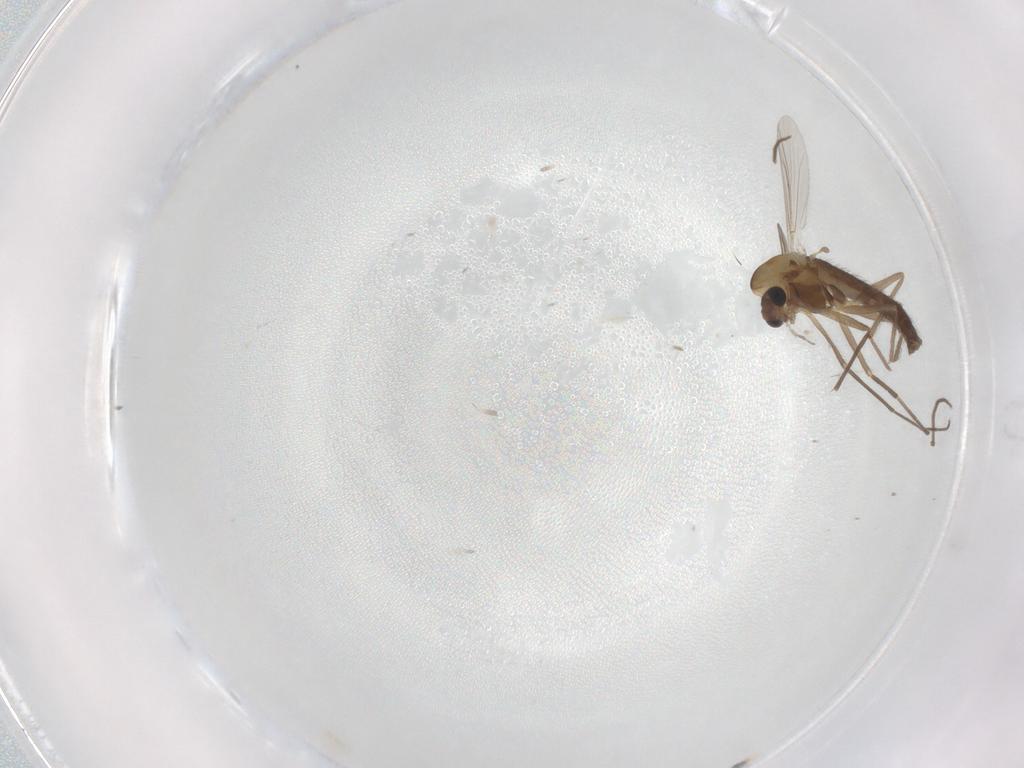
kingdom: Animalia
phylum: Arthropoda
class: Insecta
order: Diptera
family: Chironomidae
